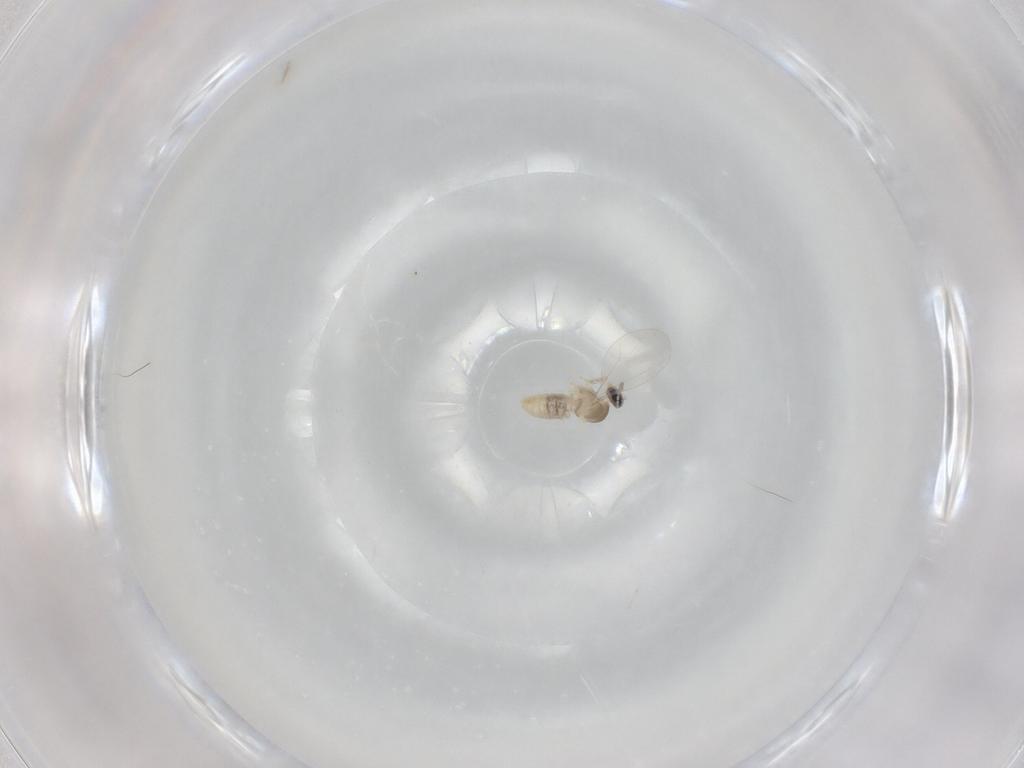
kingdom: Animalia
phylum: Arthropoda
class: Insecta
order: Diptera
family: Cecidomyiidae
